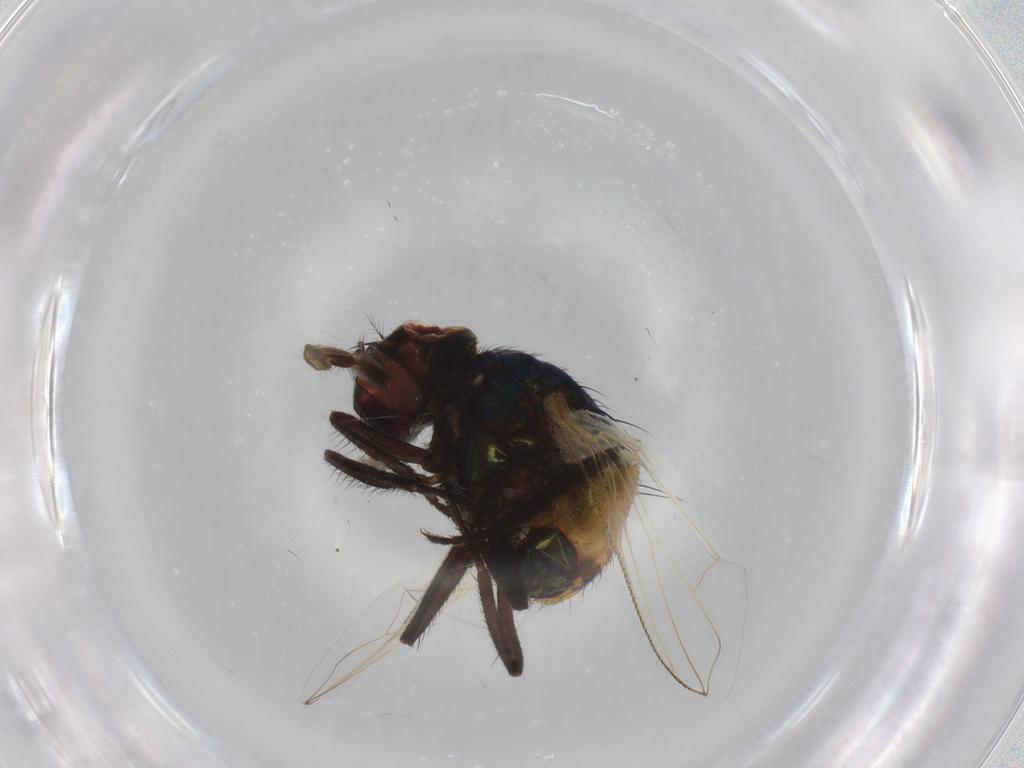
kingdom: Animalia
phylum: Arthropoda
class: Insecta
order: Diptera
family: Muscidae
